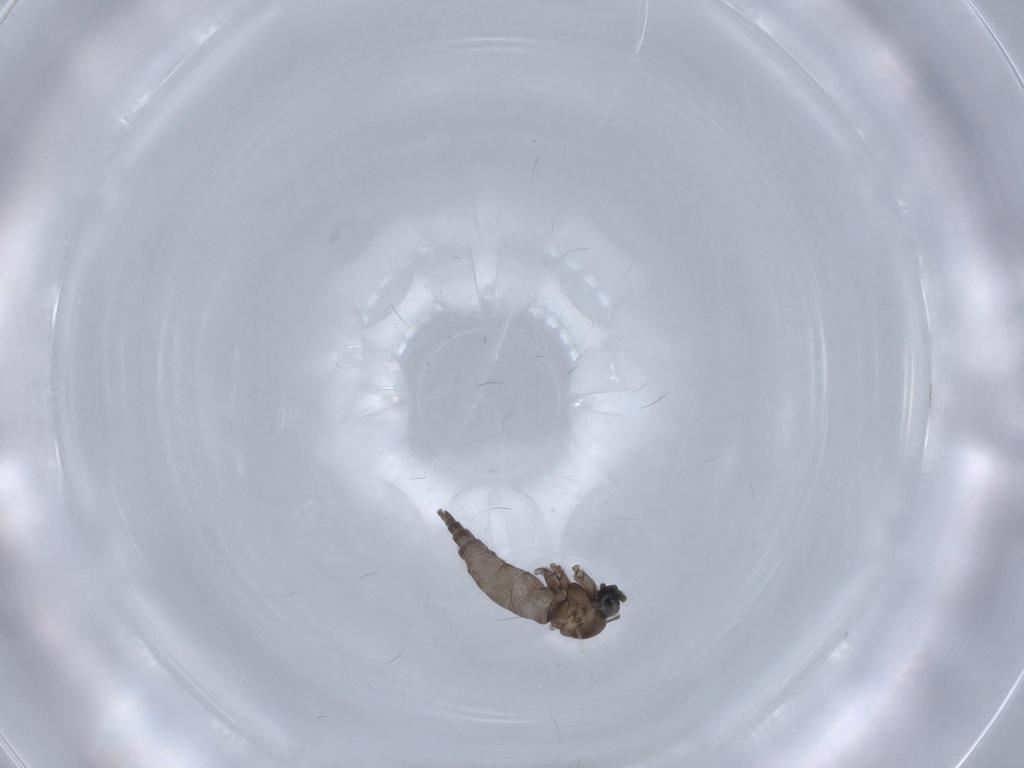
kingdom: Animalia
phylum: Arthropoda
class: Insecta
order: Diptera
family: Sciaridae
